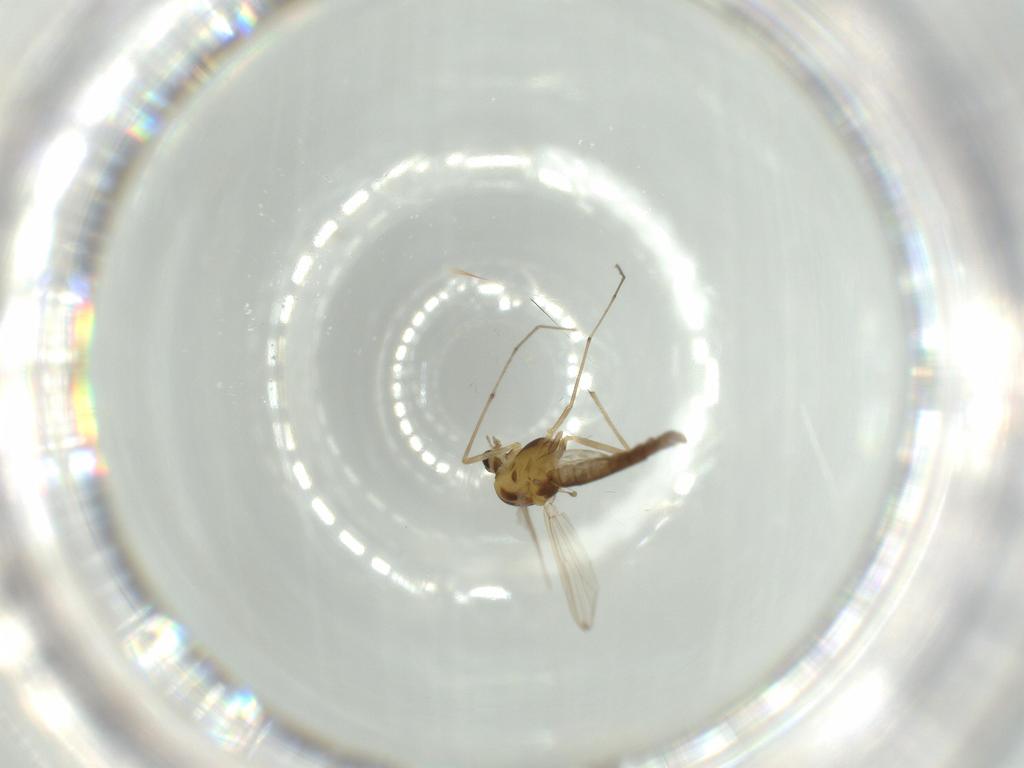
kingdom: Animalia
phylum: Arthropoda
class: Insecta
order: Diptera
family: Chironomidae
